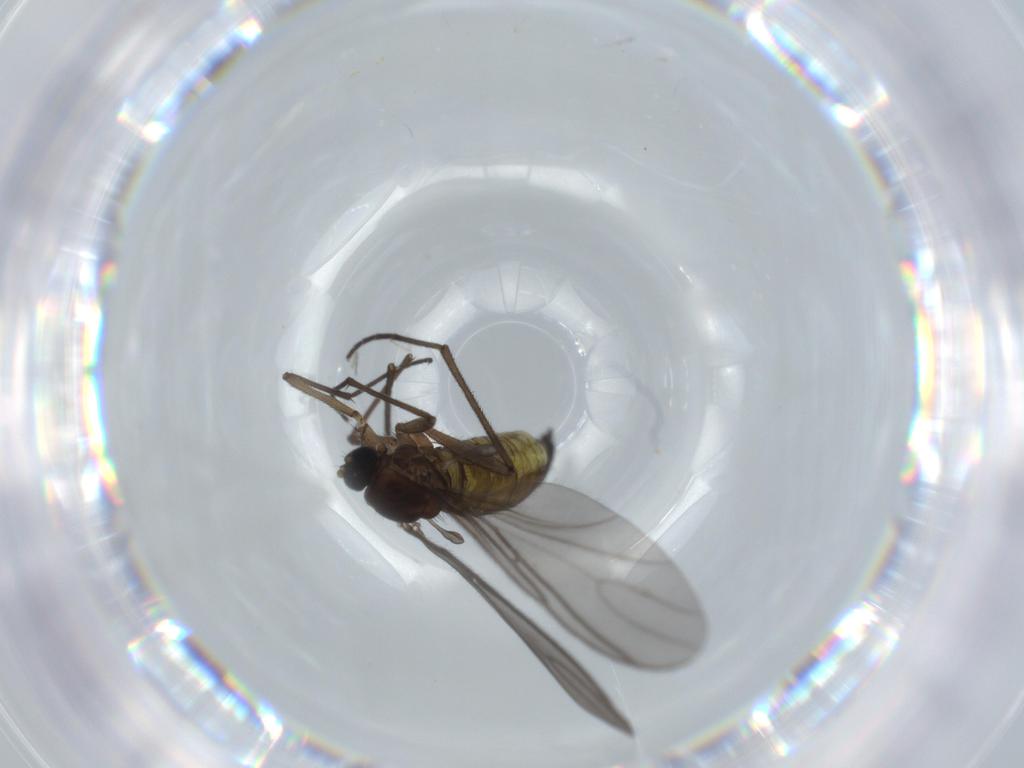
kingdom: Animalia
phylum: Arthropoda
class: Insecta
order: Diptera
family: Sciaridae
